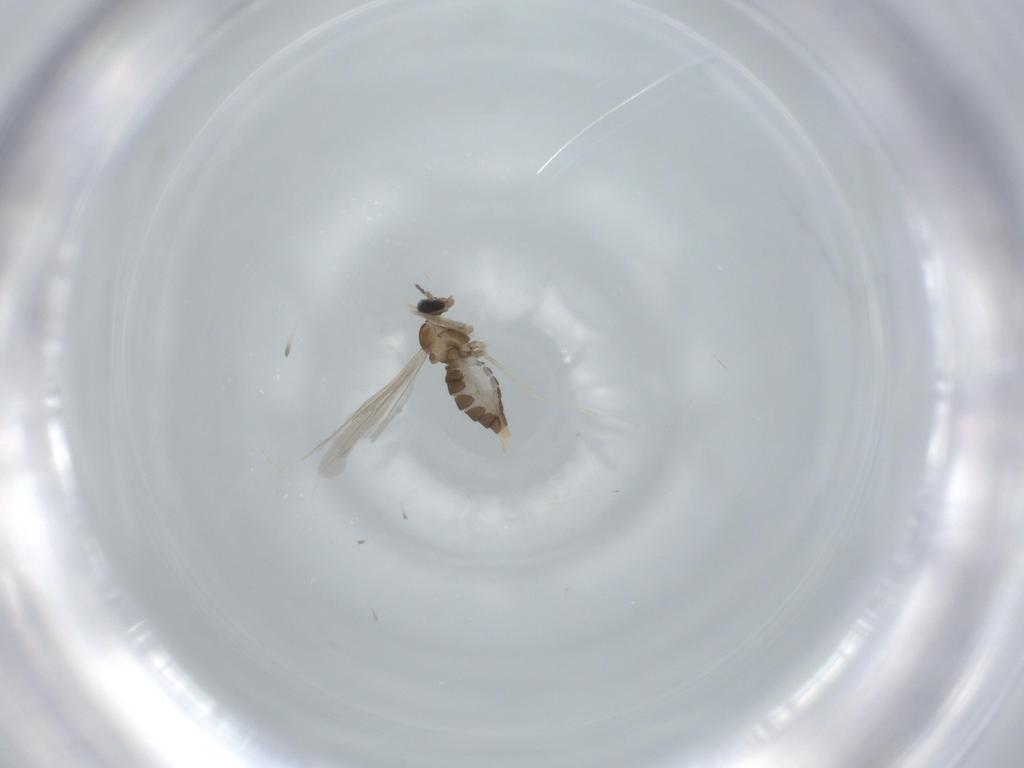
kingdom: Animalia
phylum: Arthropoda
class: Insecta
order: Diptera
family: Cecidomyiidae
